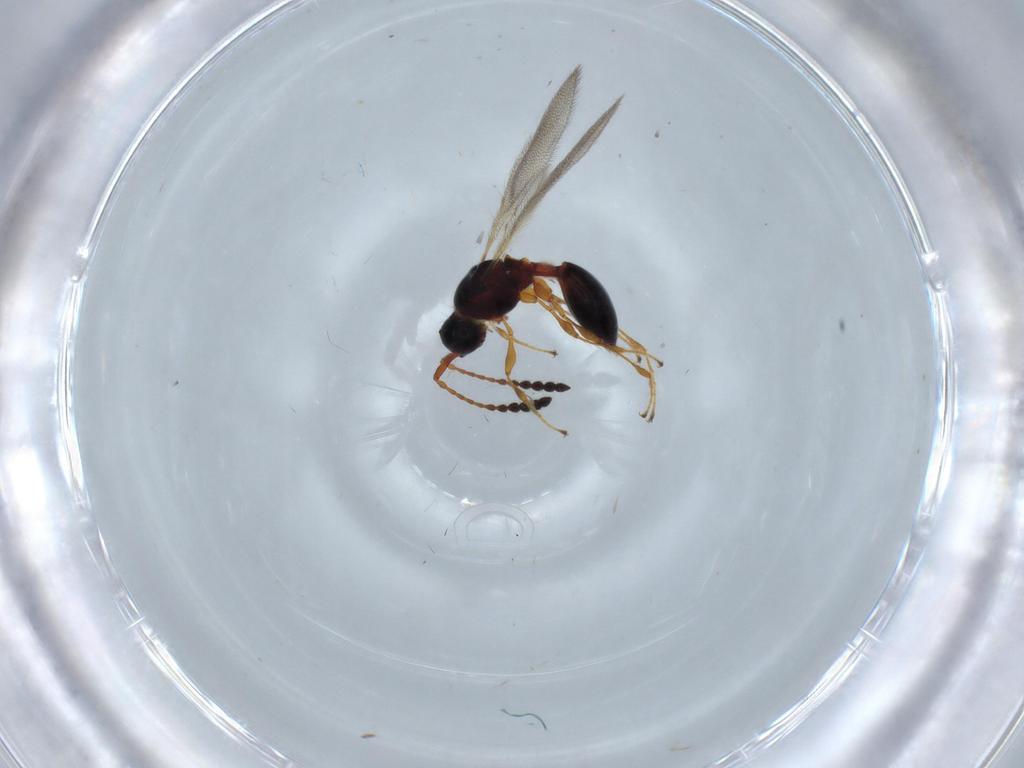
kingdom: Animalia
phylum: Arthropoda
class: Insecta
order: Hymenoptera
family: Diapriidae
